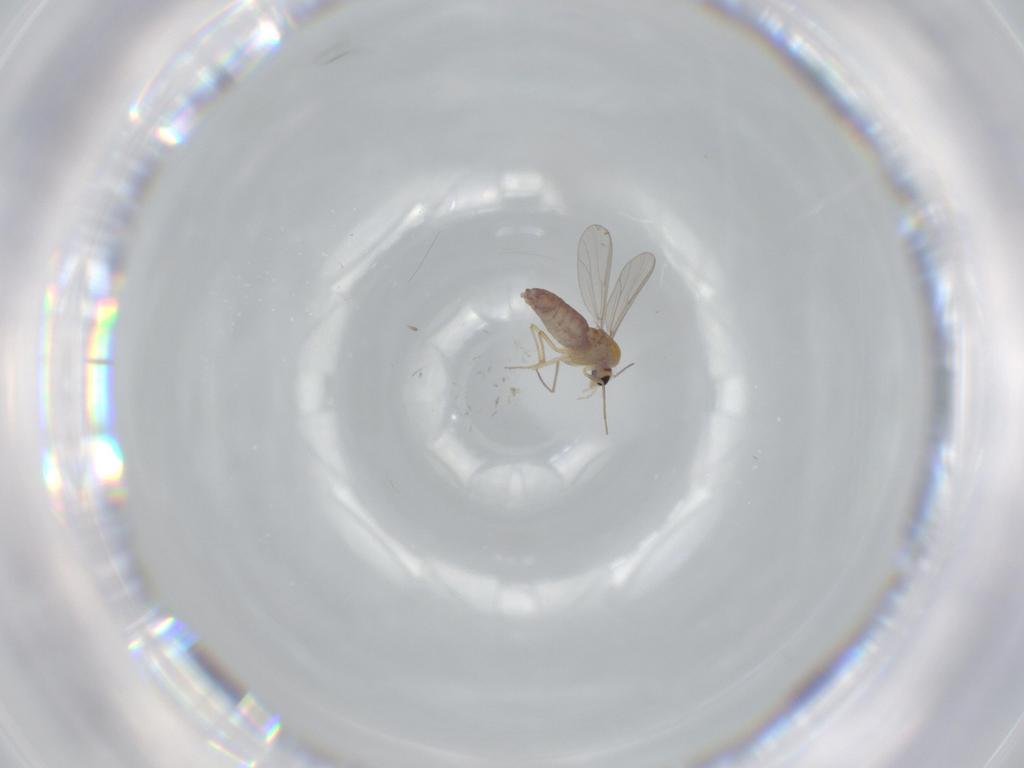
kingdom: Animalia
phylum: Arthropoda
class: Insecta
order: Diptera
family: Chironomidae
